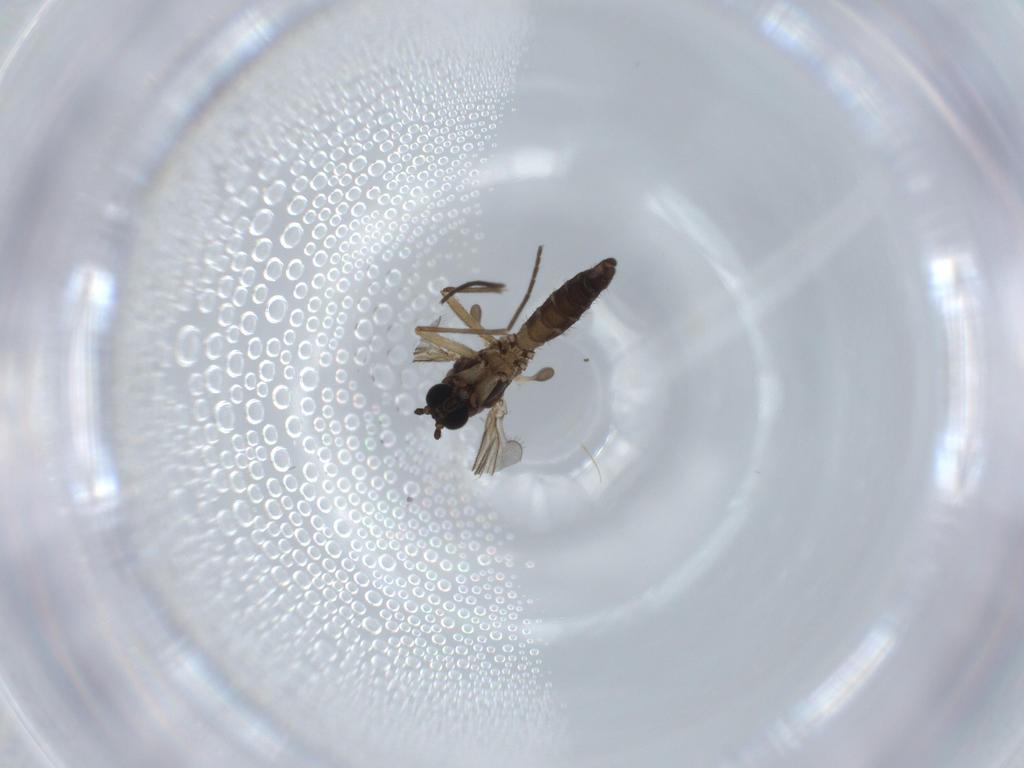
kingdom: Animalia
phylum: Arthropoda
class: Insecta
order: Diptera
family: Sciaridae
